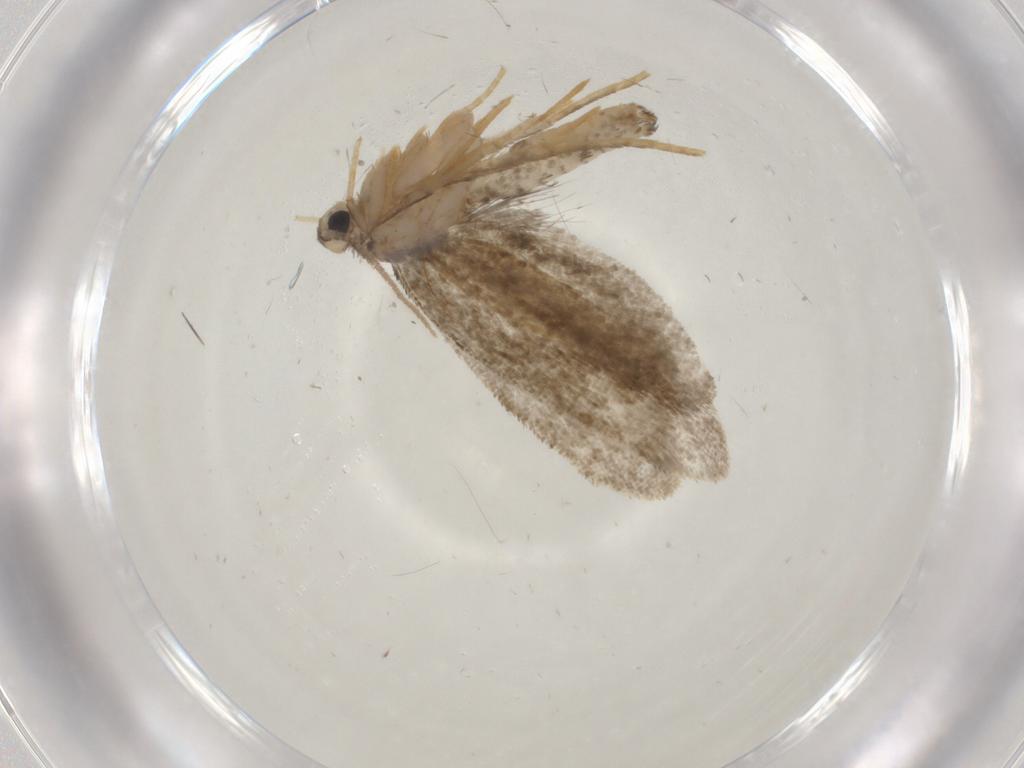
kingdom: Animalia
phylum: Arthropoda
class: Insecta
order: Lepidoptera
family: Psychidae
